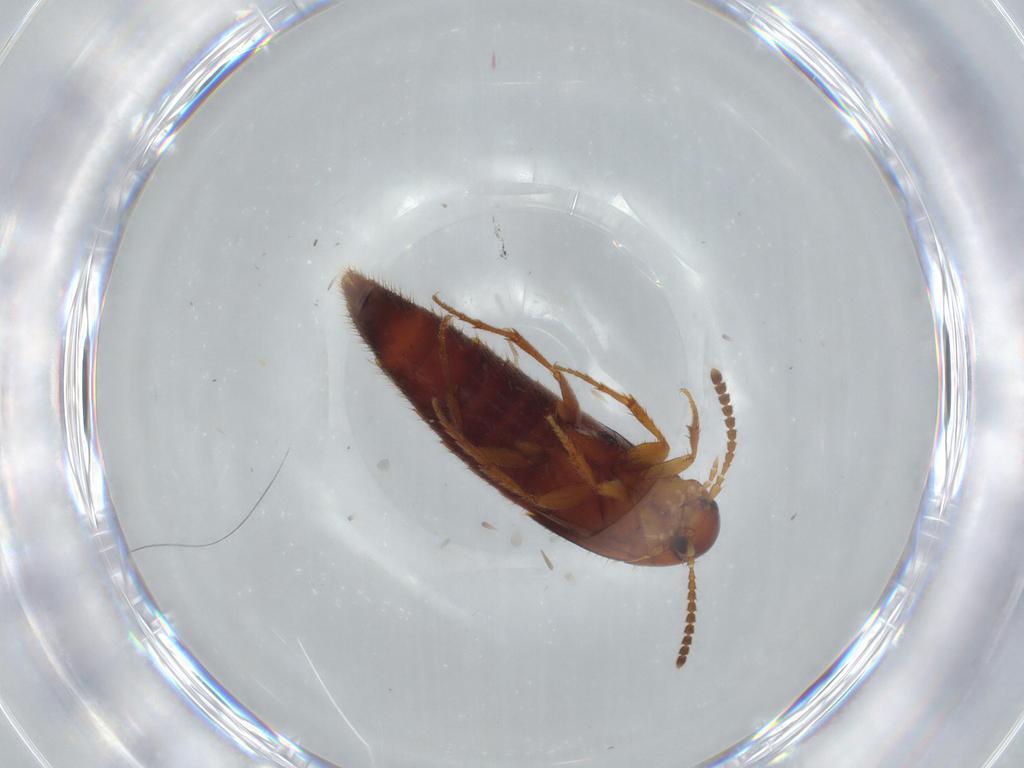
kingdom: Animalia
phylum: Arthropoda
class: Insecta
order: Coleoptera
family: Staphylinidae
